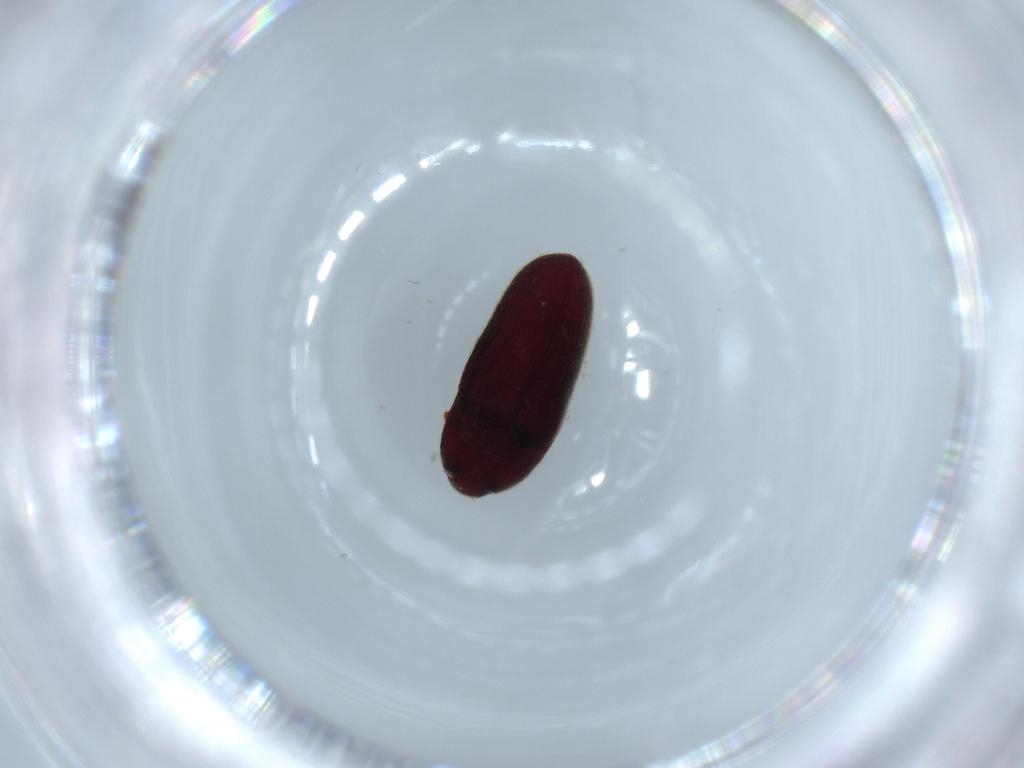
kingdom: Animalia
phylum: Arthropoda
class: Insecta
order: Coleoptera
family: Throscidae
